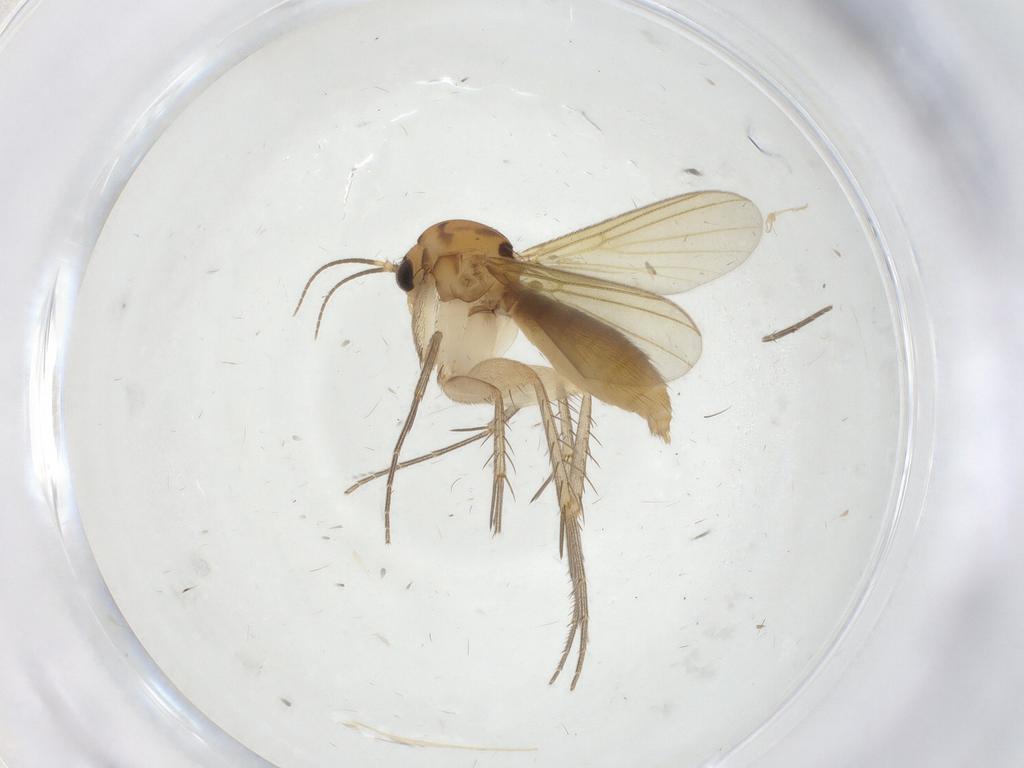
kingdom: Animalia
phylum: Arthropoda
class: Insecta
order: Diptera
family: Mycetophilidae
